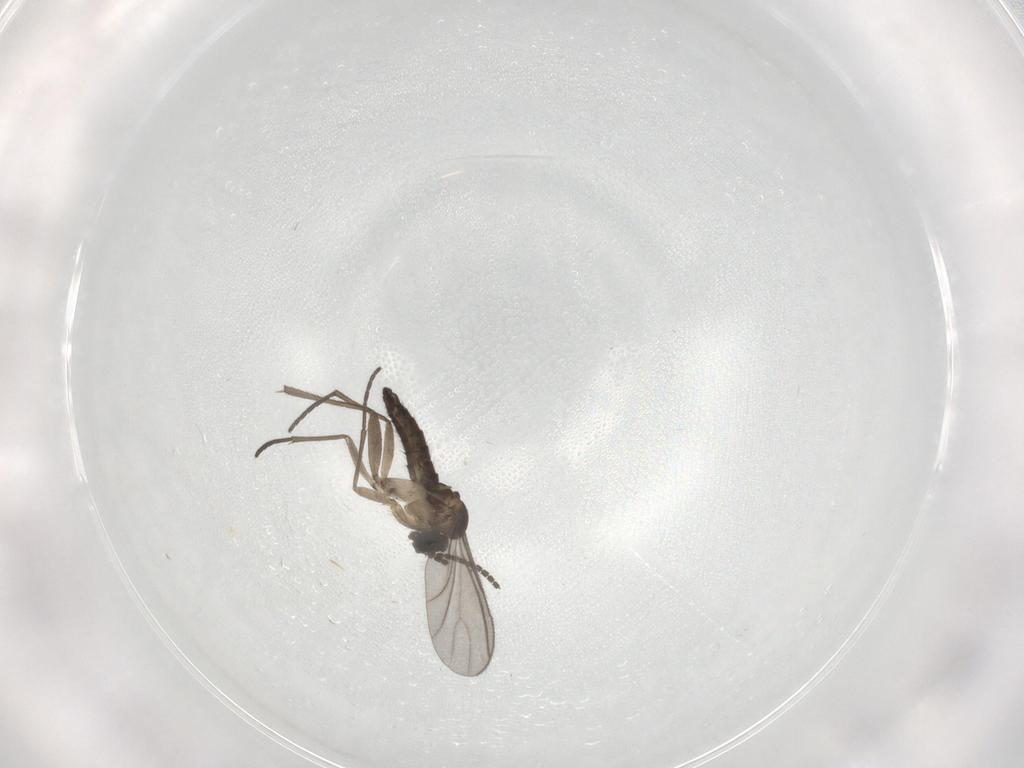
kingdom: Animalia
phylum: Arthropoda
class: Insecta
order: Diptera
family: Sciaridae
